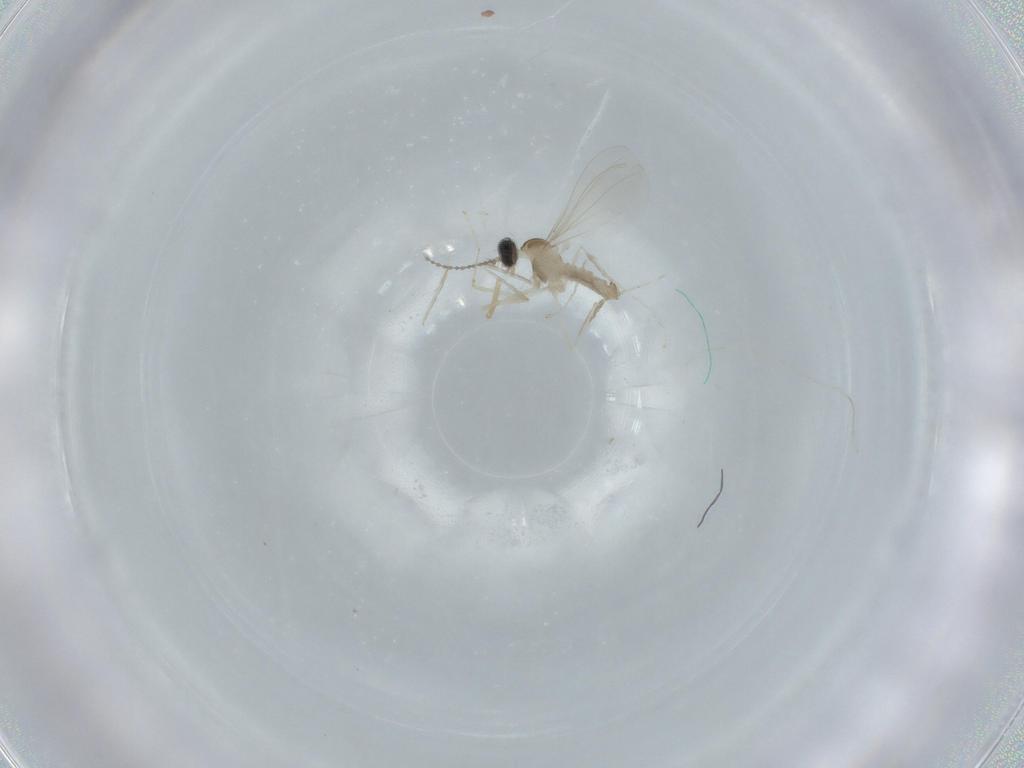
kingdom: Animalia
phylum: Arthropoda
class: Insecta
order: Diptera
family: Cecidomyiidae
